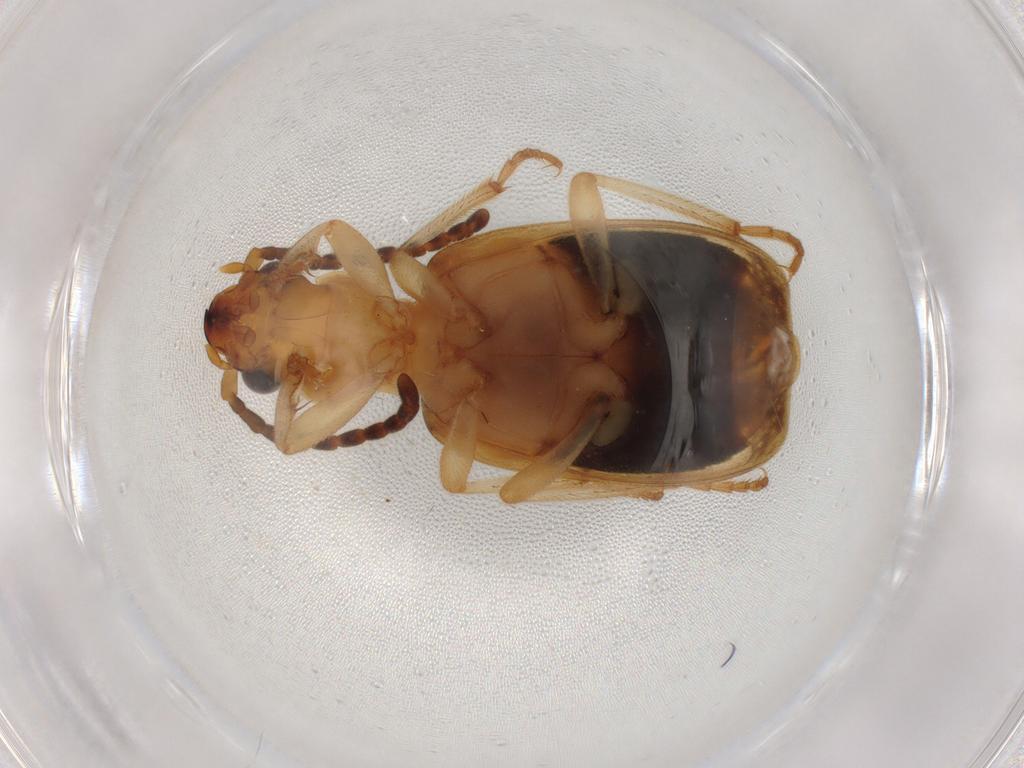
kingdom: Animalia
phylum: Arthropoda
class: Insecta
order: Coleoptera
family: Carabidae
